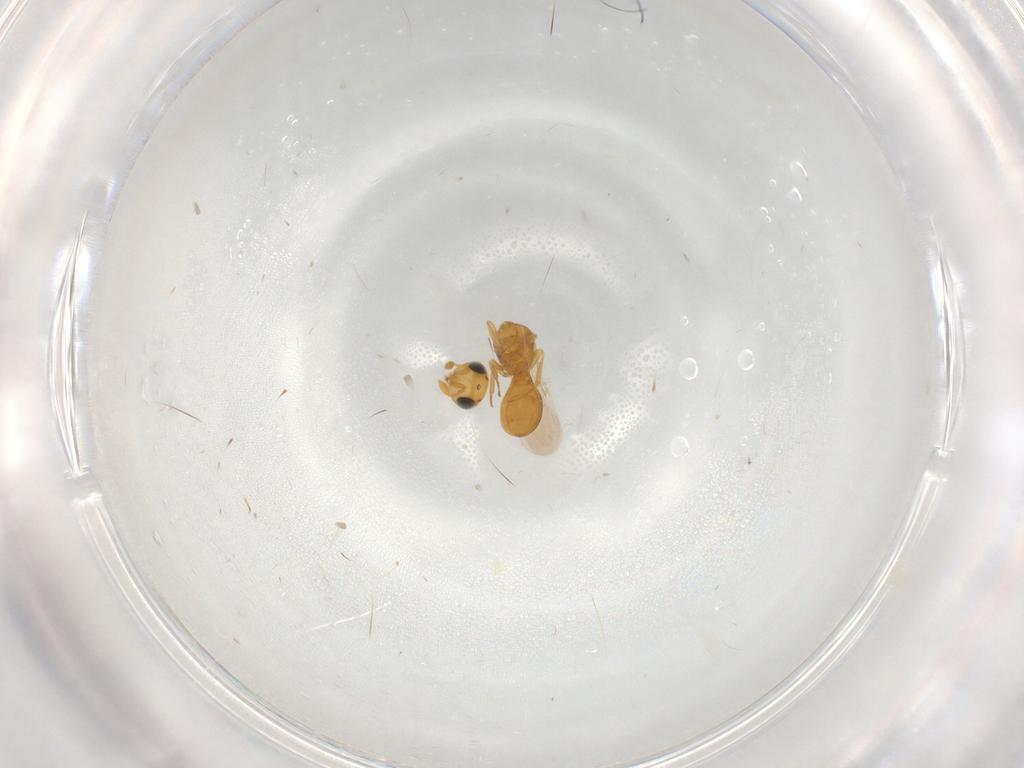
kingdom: Animalia
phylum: Arthropoda
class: Insecta
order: Hymenoptera
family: Scelionidae
